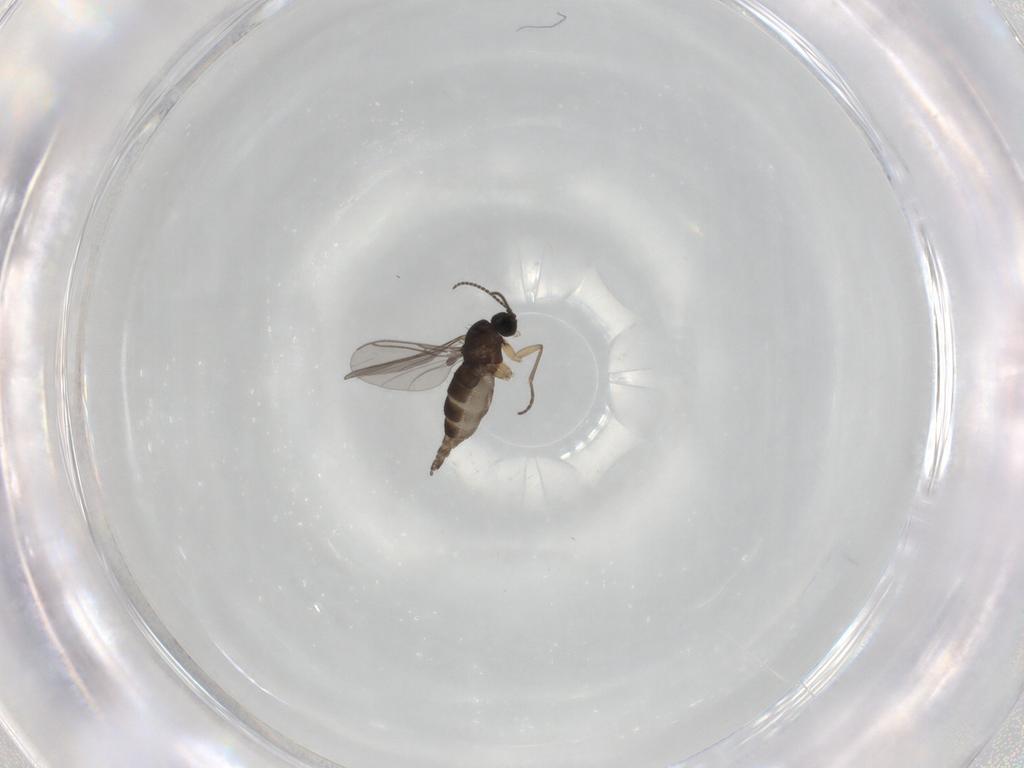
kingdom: Animalia
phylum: Arthropoda
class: Insecta
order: Diptera
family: Sciaridae
